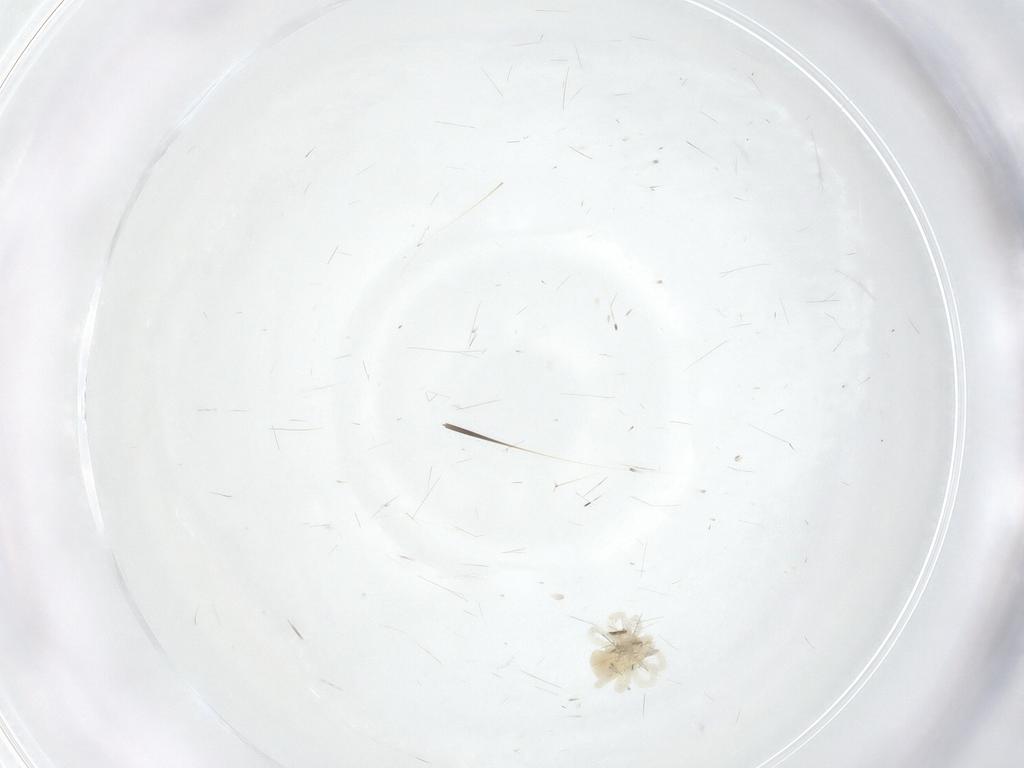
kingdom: Animalia
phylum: Arthropoda
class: Arachnida
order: Trombidiformes
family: Anystidae
